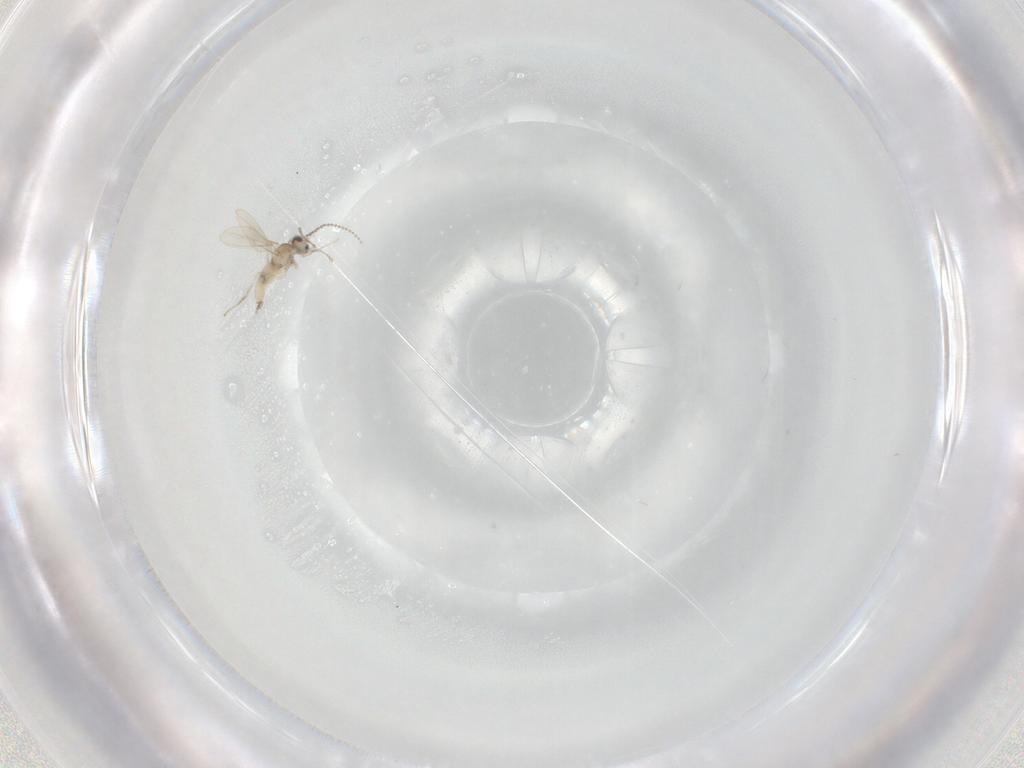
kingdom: Animalia
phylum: Arthropoda
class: Insecta
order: Diptera
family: Cecidomyiidae
